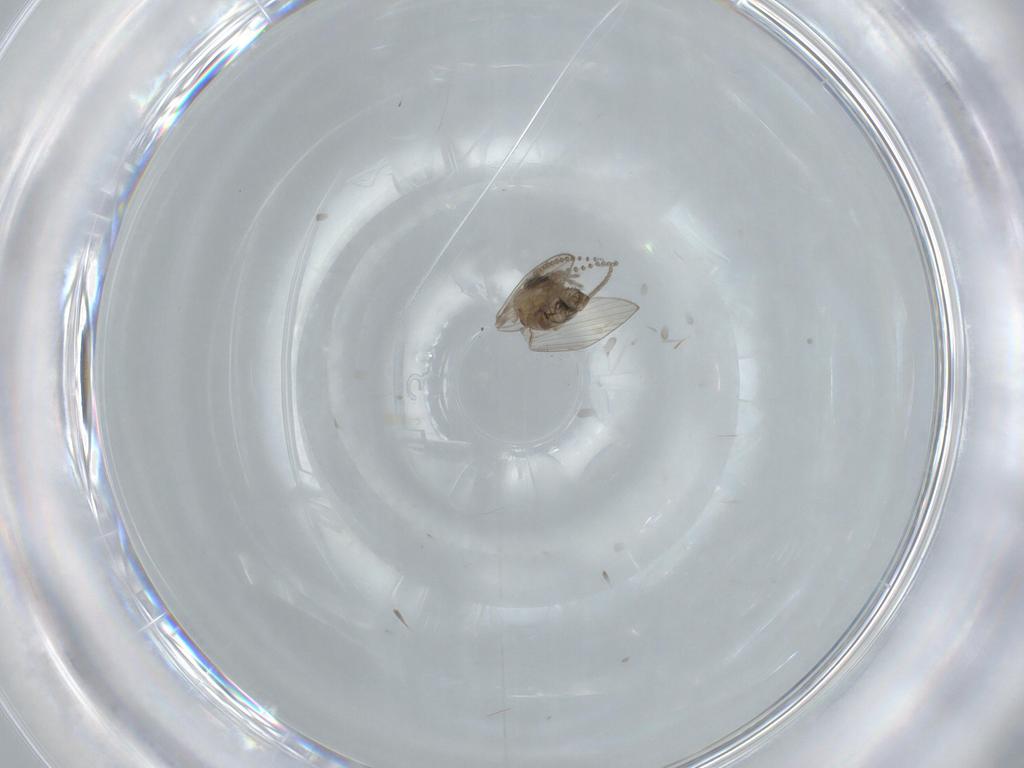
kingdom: Animalia
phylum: Arthropoda
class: Insecta
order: Diptera
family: Psychodidae
